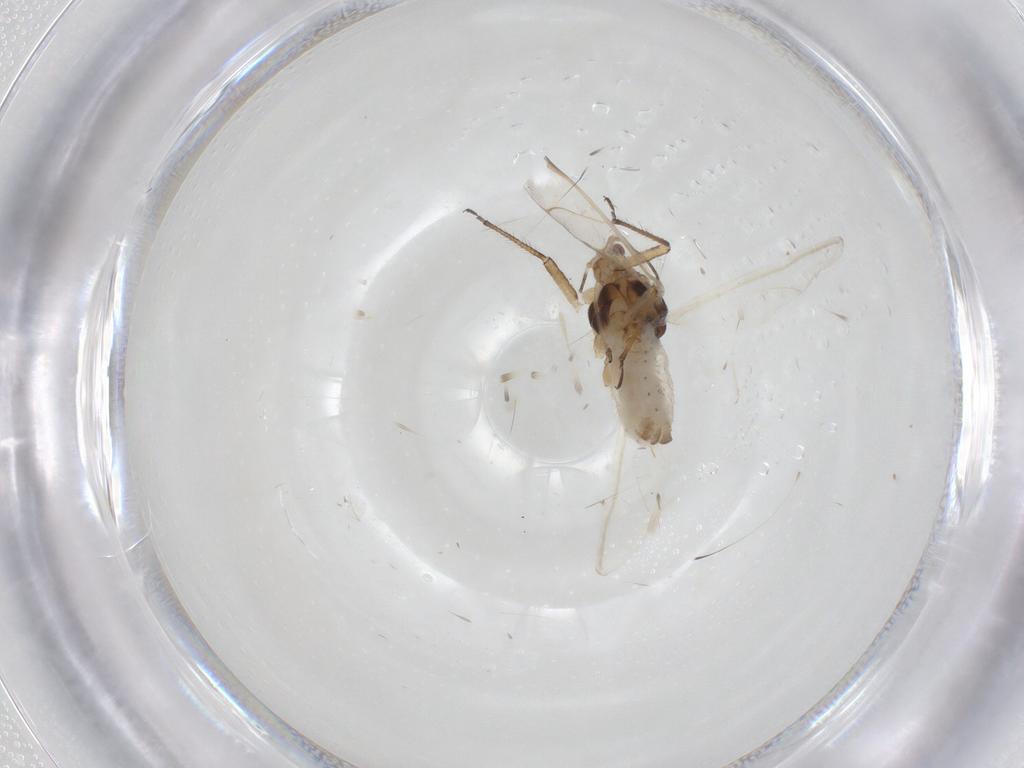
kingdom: Animalia
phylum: Arthropoda
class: Insecta
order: Hemiptera
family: Lachnidae
